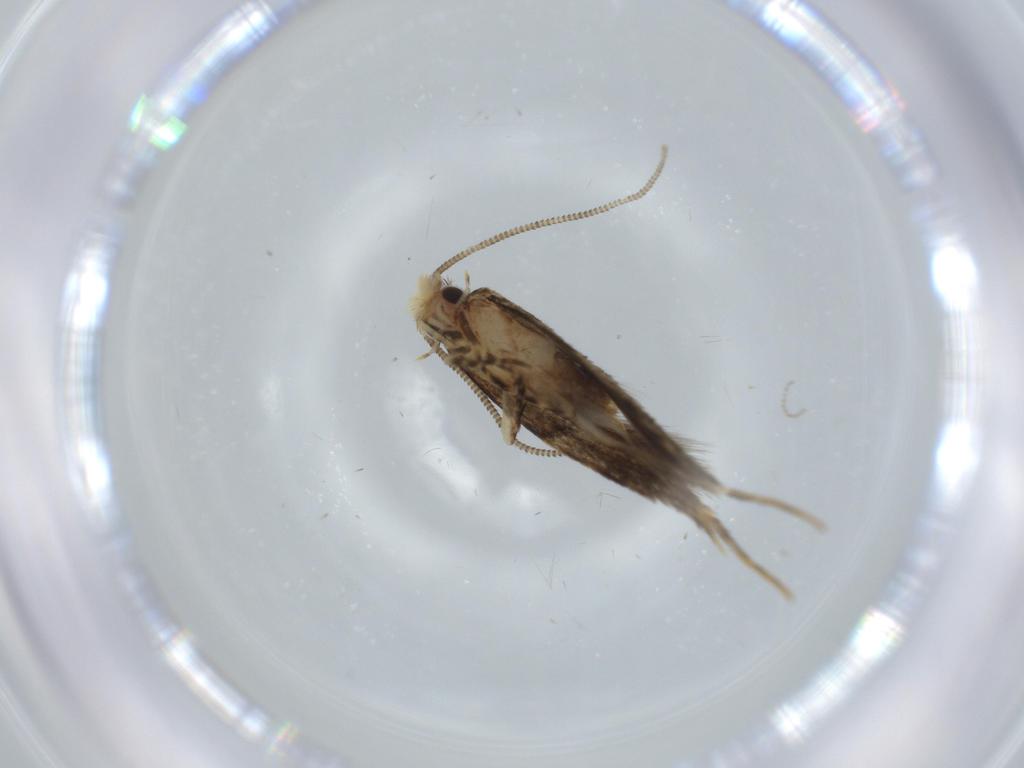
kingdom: Animalia
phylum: Arthropoda
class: Insecta
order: Lepidoptera
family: Tineidae
